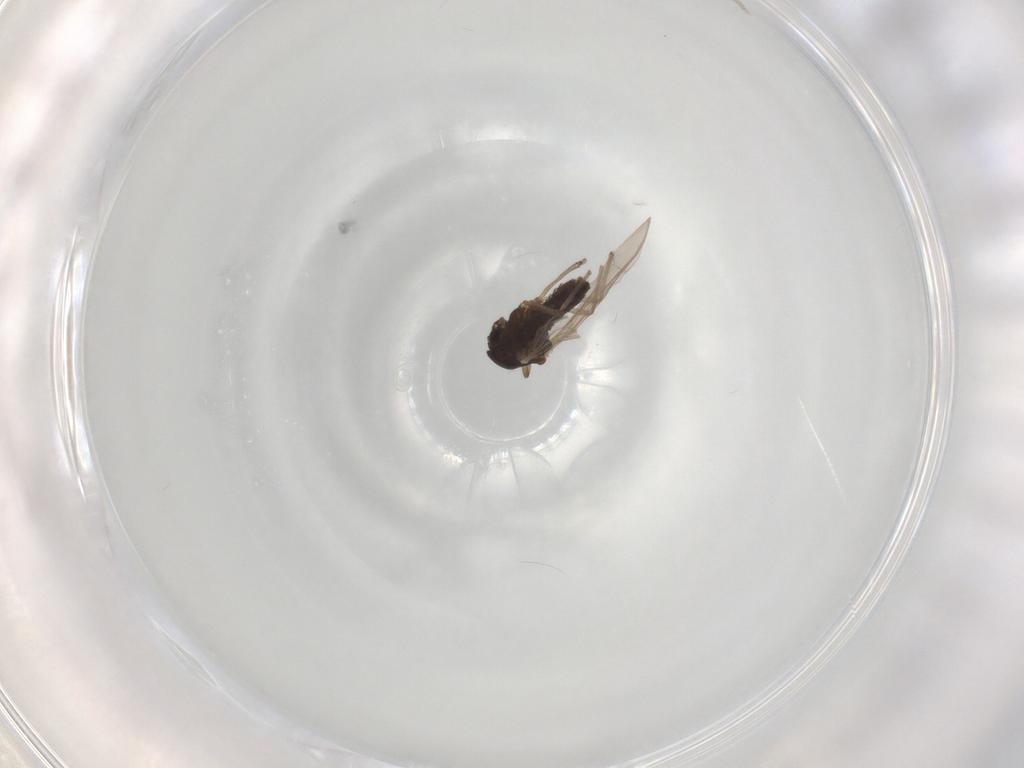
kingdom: Animalia
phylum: Arthropoda
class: Insecta
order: Diptera
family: Chironomidae
